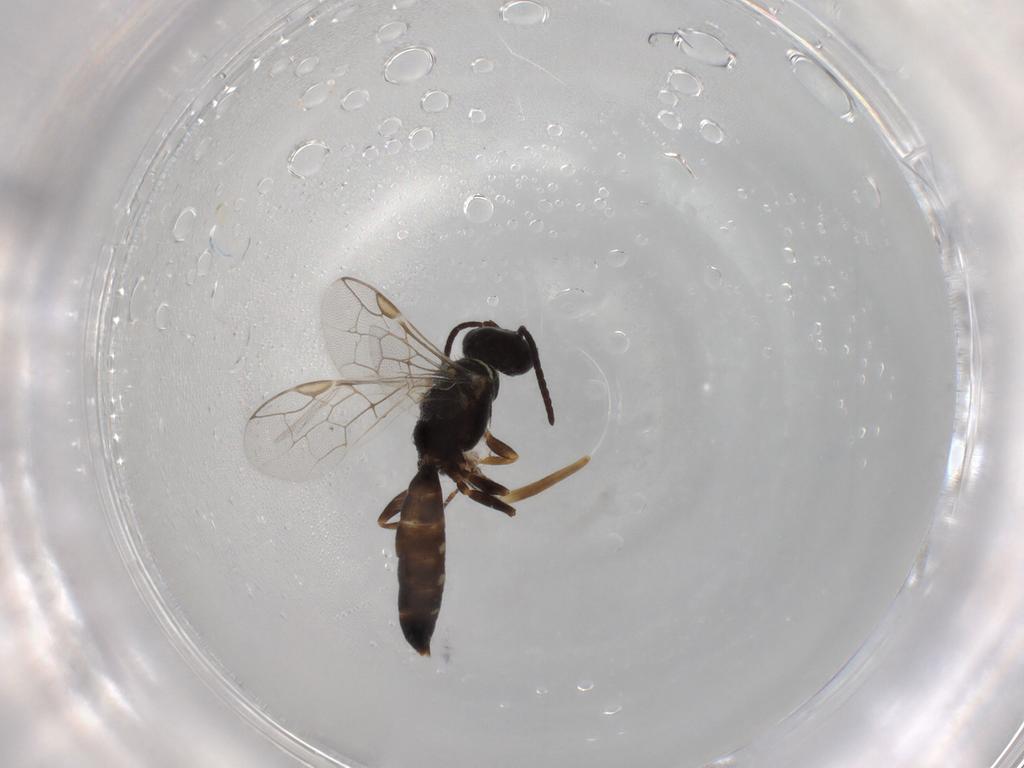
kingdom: Animalia
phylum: Arthropoda
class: Insecta
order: Hymenoptera
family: Thynnidae
